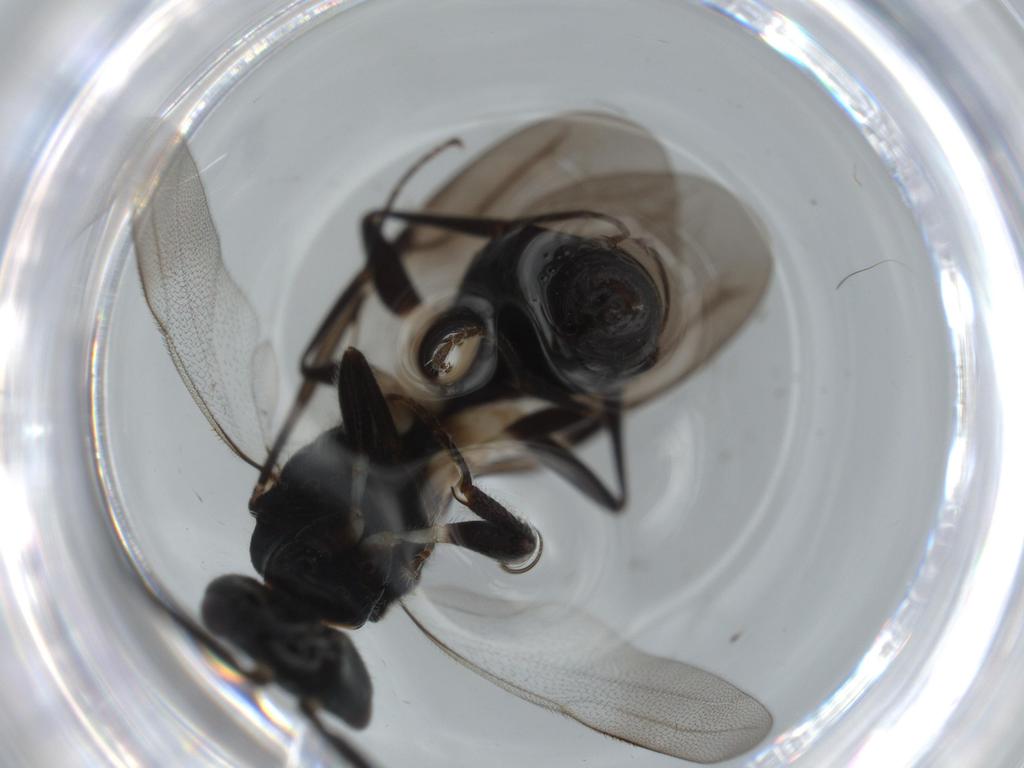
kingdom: Animalia
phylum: Arthropoda
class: Insecta
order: Hymenoptera
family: Bethylidae
